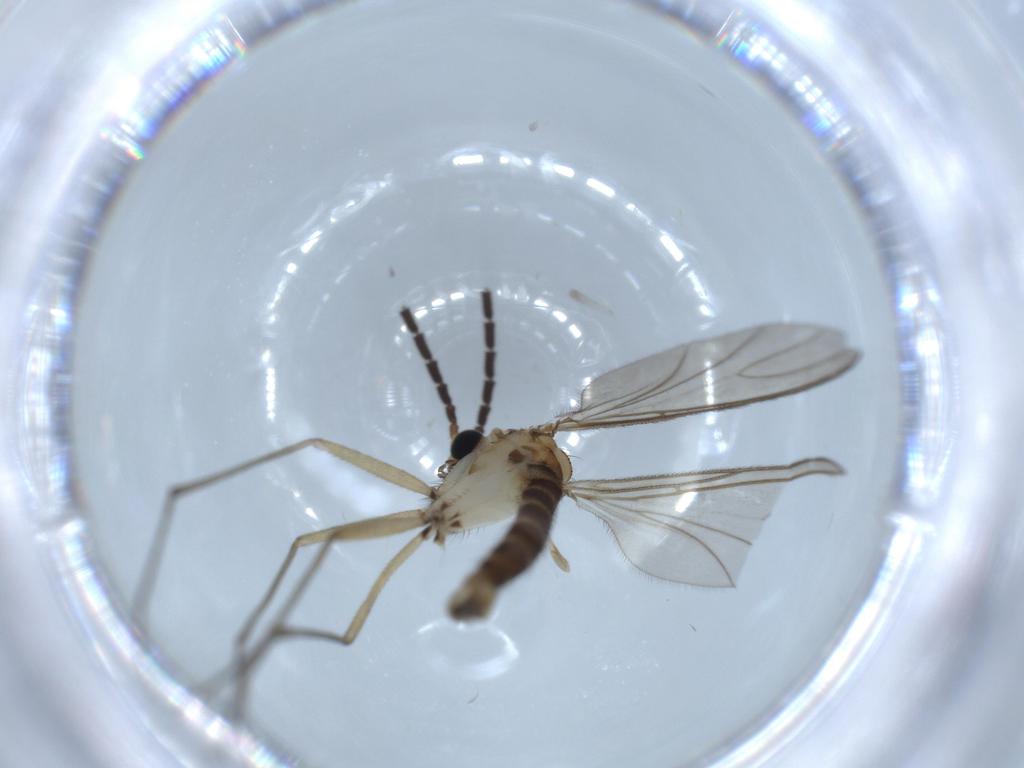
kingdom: Animalia
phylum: Arthropoda
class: Insecta
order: Diptera
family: Sciaridae
